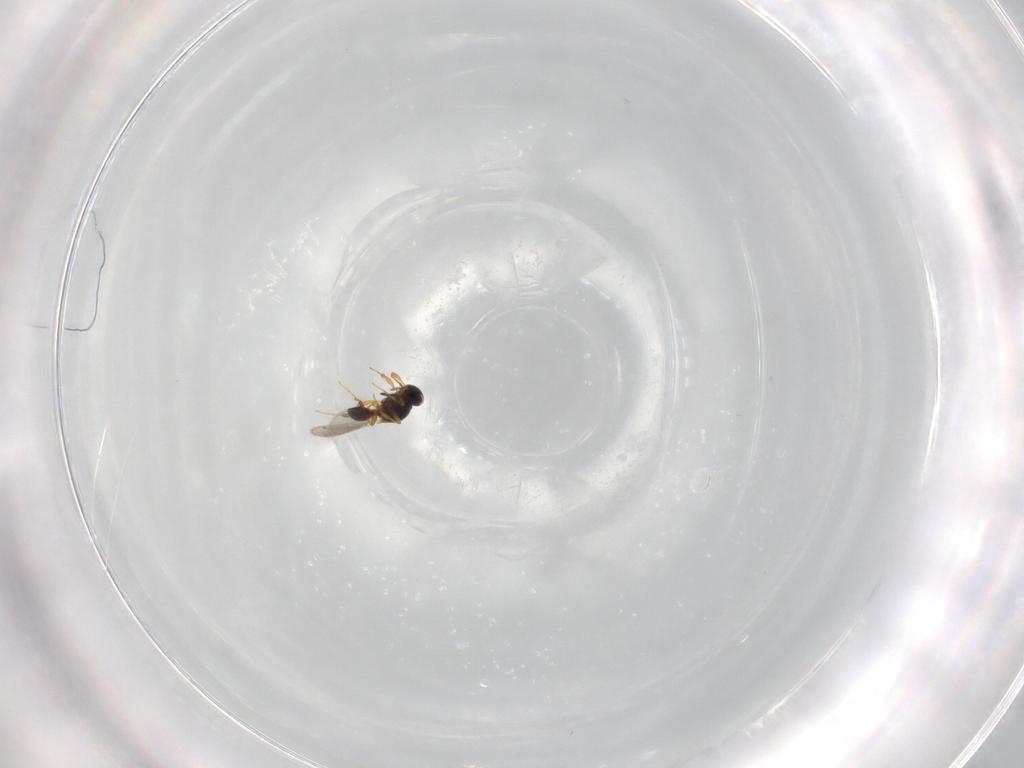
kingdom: Animalia
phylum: Arthropoda
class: Insecta
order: Hymenoptera
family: Platygastridae
